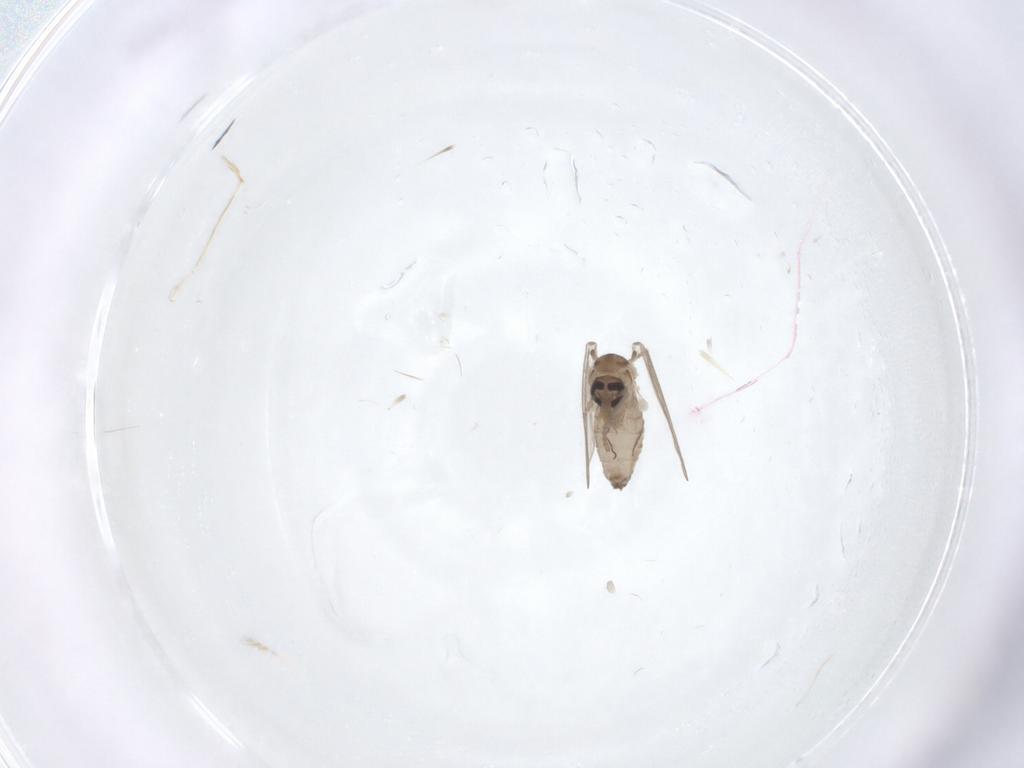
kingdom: Animalia
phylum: Arthropoda
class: Insecta
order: Diptera
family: Psychodidae
